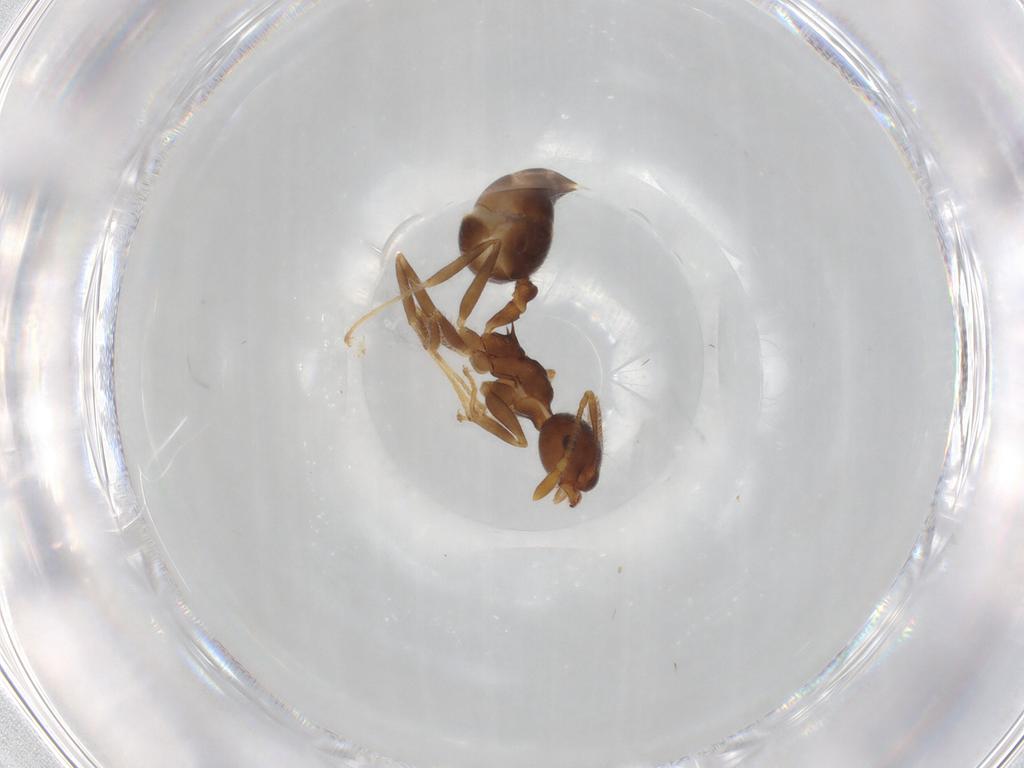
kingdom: Animalia
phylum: Arthropoda
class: Insecta
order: Hymenoptera
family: Formicidae
